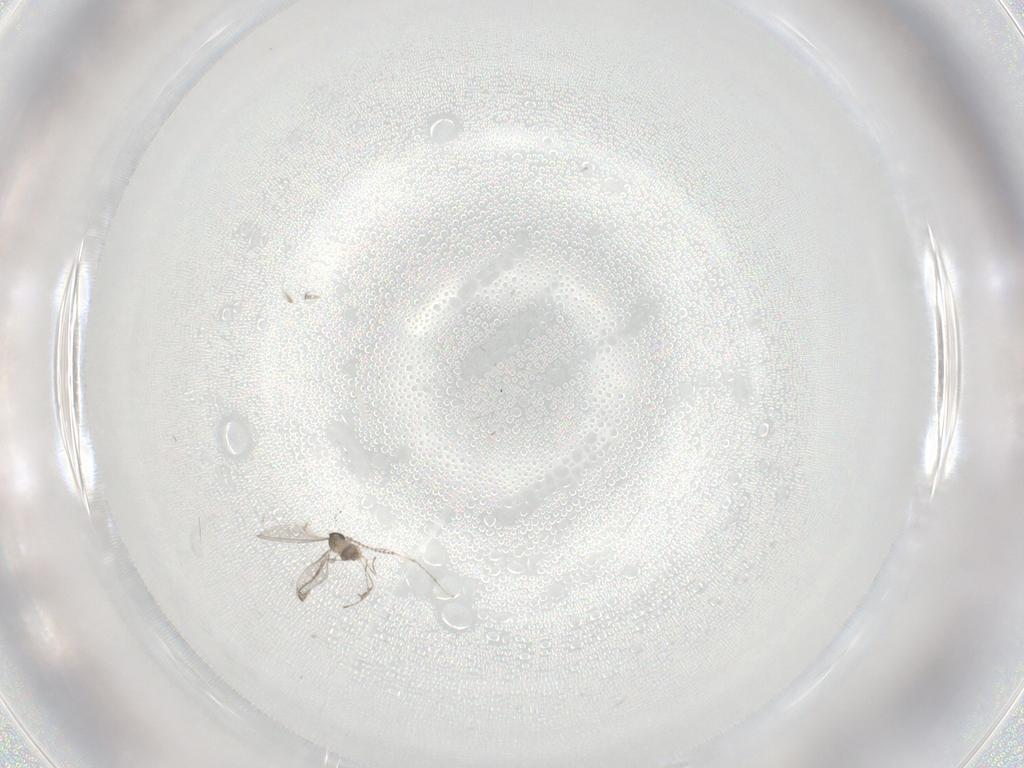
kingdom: Animalia
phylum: Arthropoda
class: Insecta
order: Diptera
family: Cecidomyiidae
